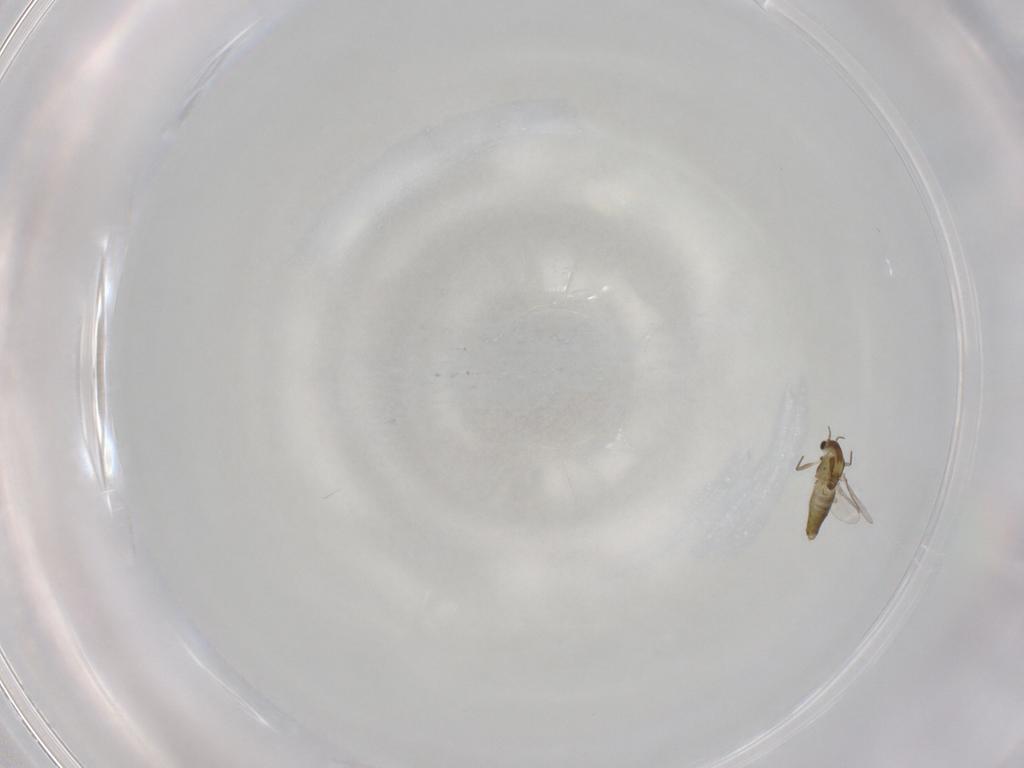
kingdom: Animalia
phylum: Arthropoda
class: Insecta
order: Diptera
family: Chironomidae
